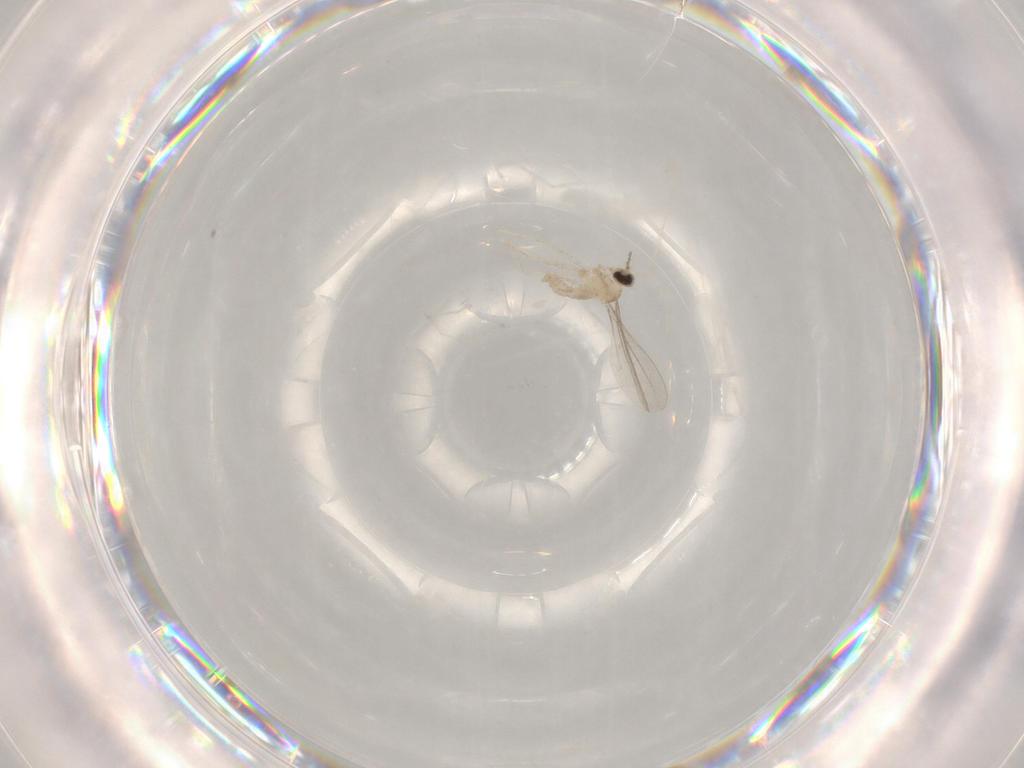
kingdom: Animalia
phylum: Arthropoda
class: Insecta
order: Diptera
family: Cecidomyiidae
